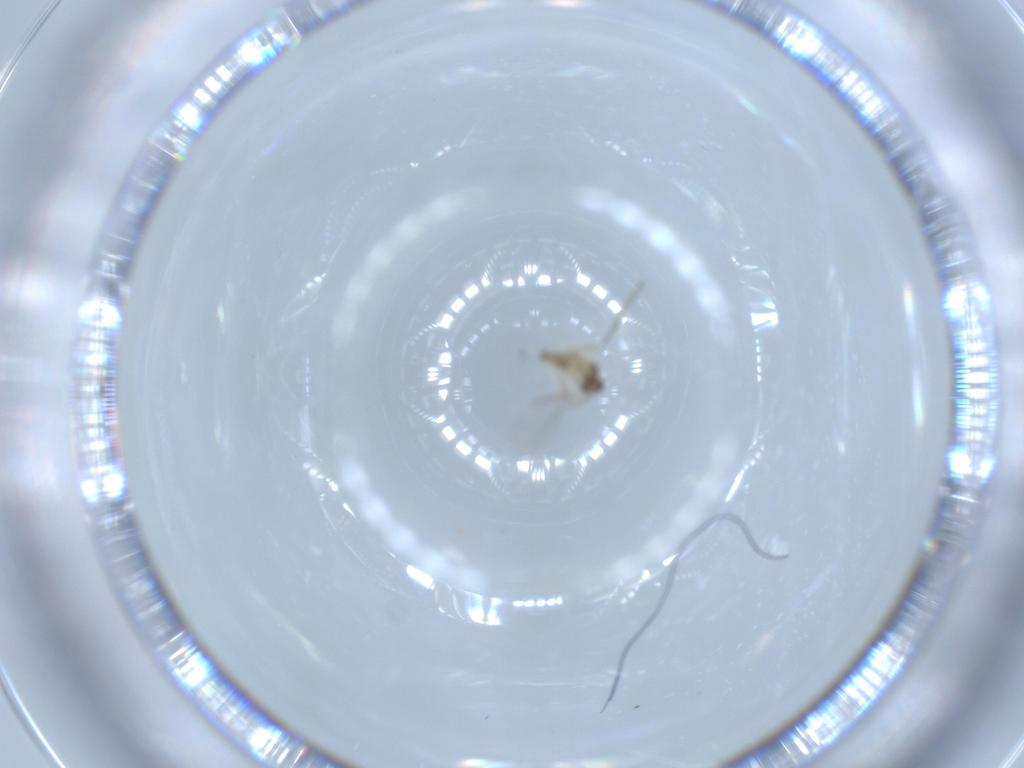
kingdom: Animalia
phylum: Arthropoda
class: Insecta
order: Diptera
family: Cecidomyiidae
